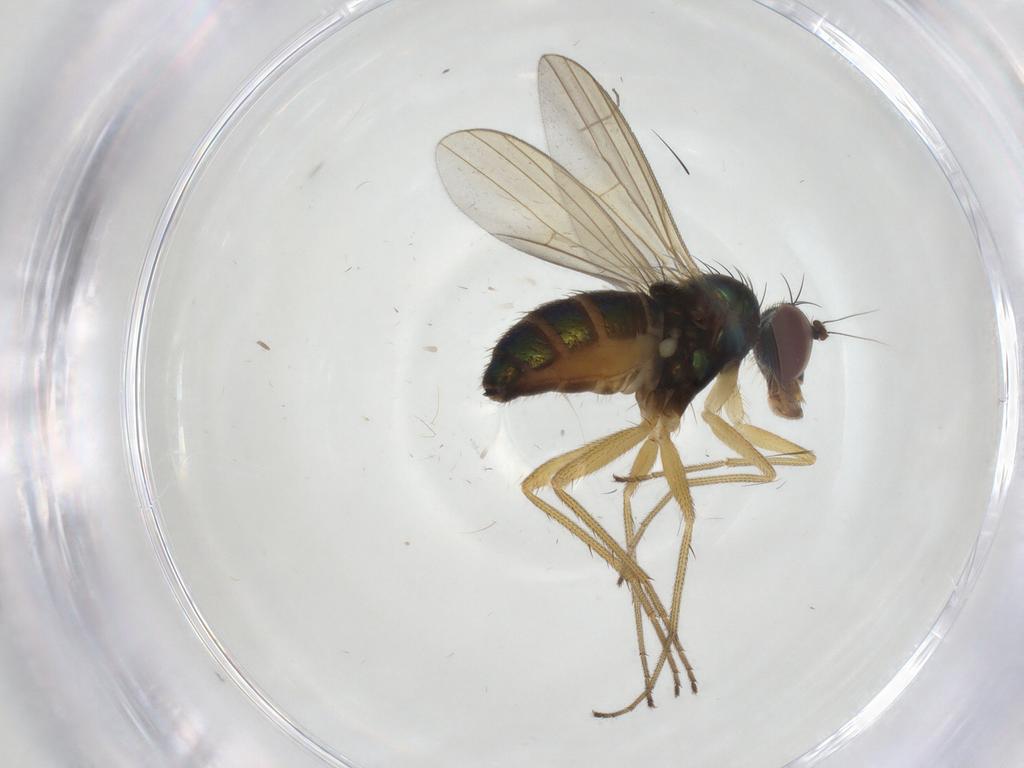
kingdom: Animalia
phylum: Arthropoda
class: Insecta
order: Diptera
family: Dolichopodidae
